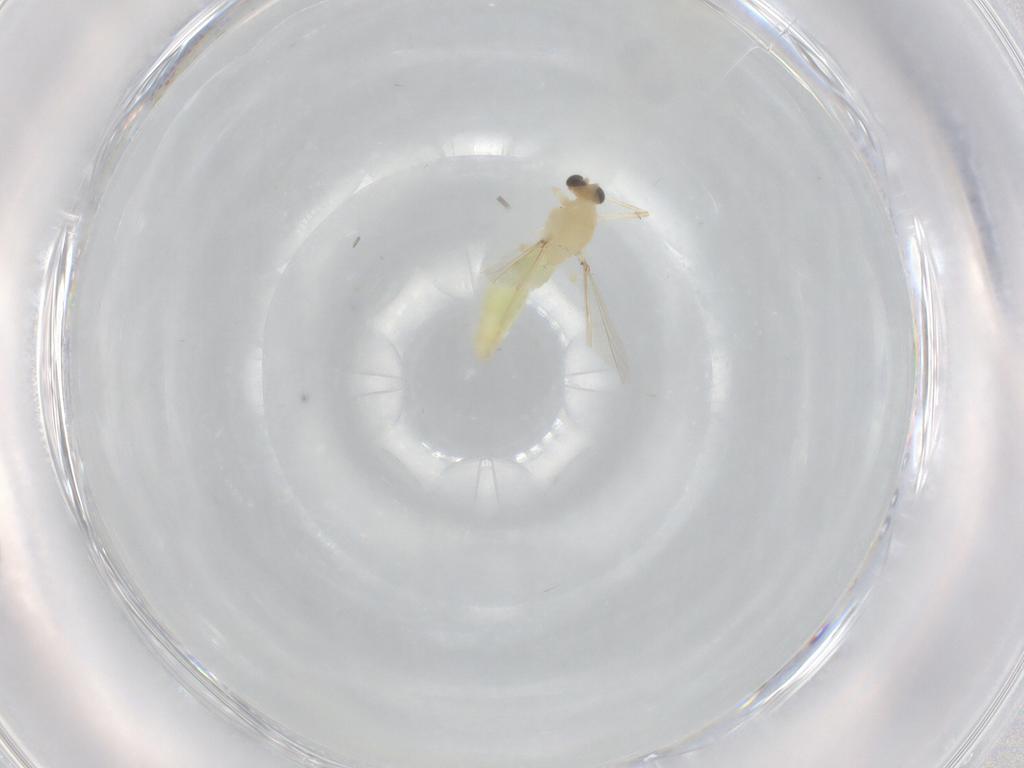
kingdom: Animalia
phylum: Arthropoda
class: Insecta
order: Diptera
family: Chironomidae
